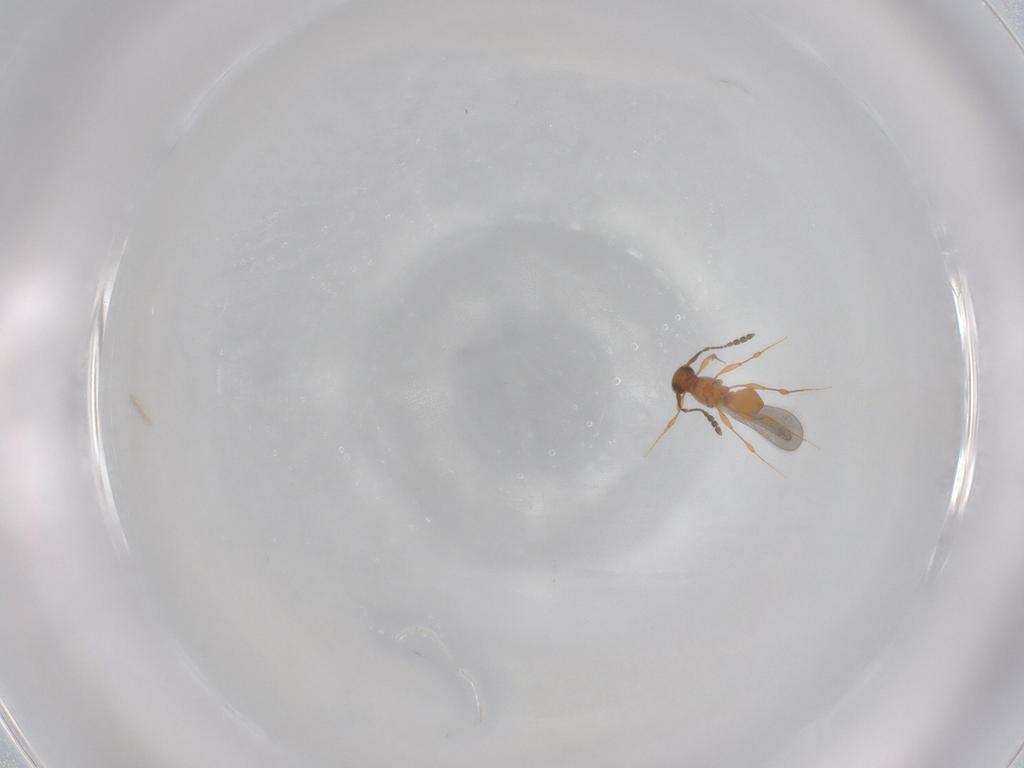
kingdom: Animalia
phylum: Arthropoda
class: Insecta
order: Hymenoptera
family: Platygastridae
